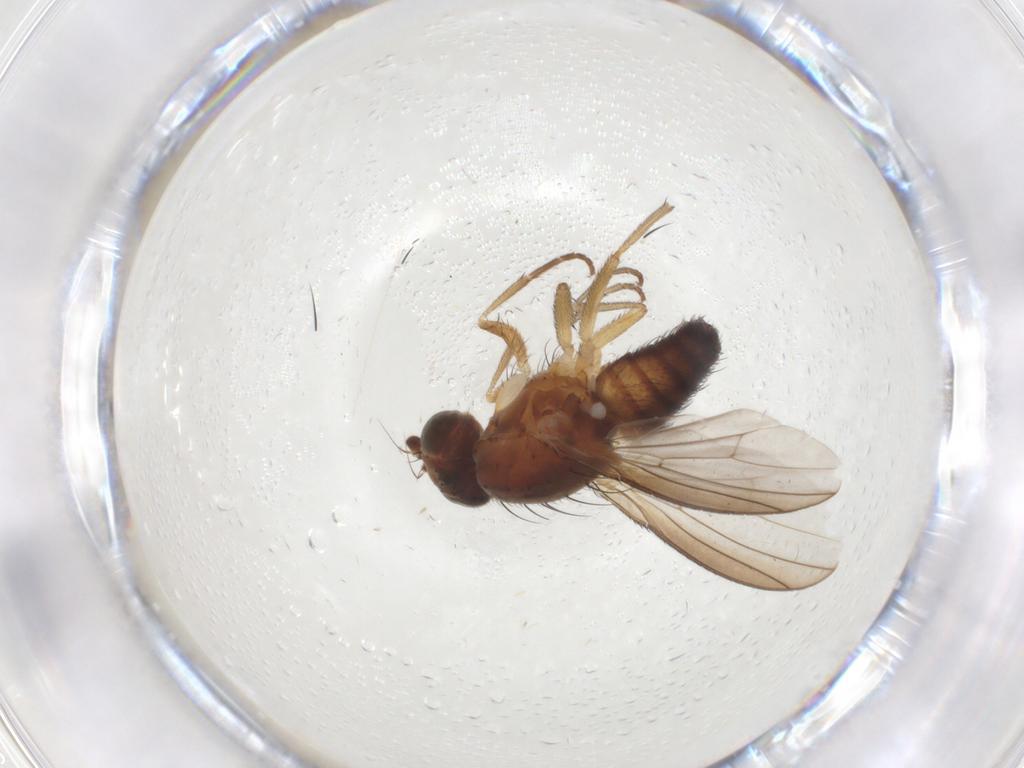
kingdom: Animalia
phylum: Arthropoda
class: Insecta
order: Diptera
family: Heleomyzidae
